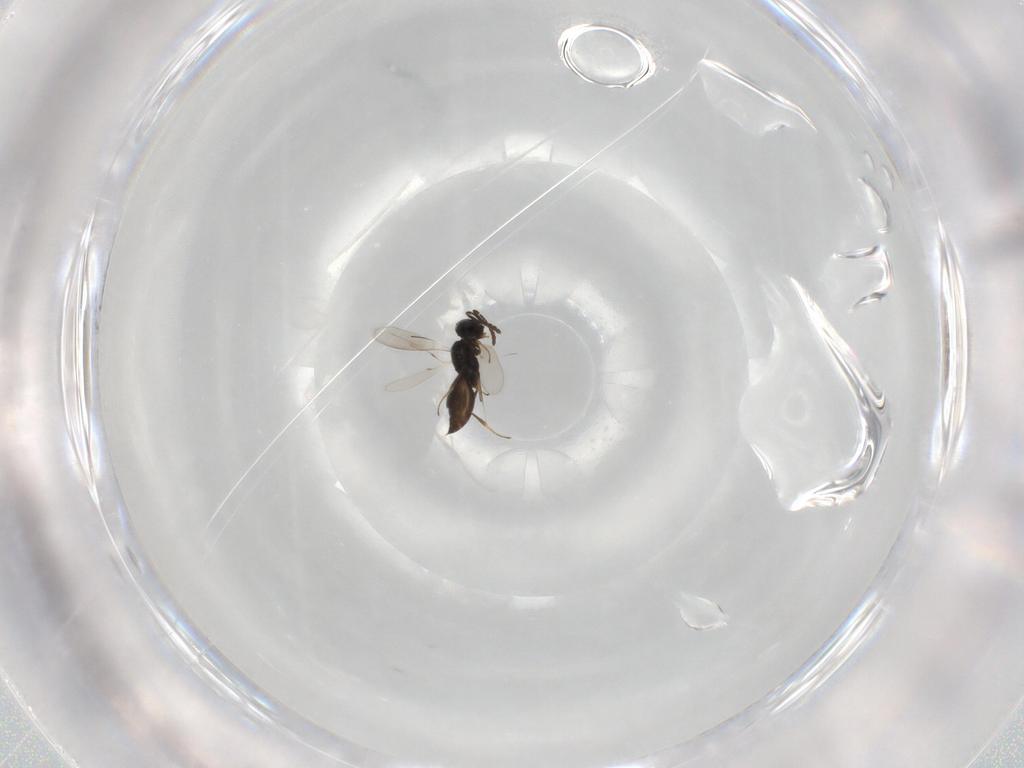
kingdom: Animalia
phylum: Arthropoda
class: Insecta
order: Hymenoptera
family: Scelionidae
